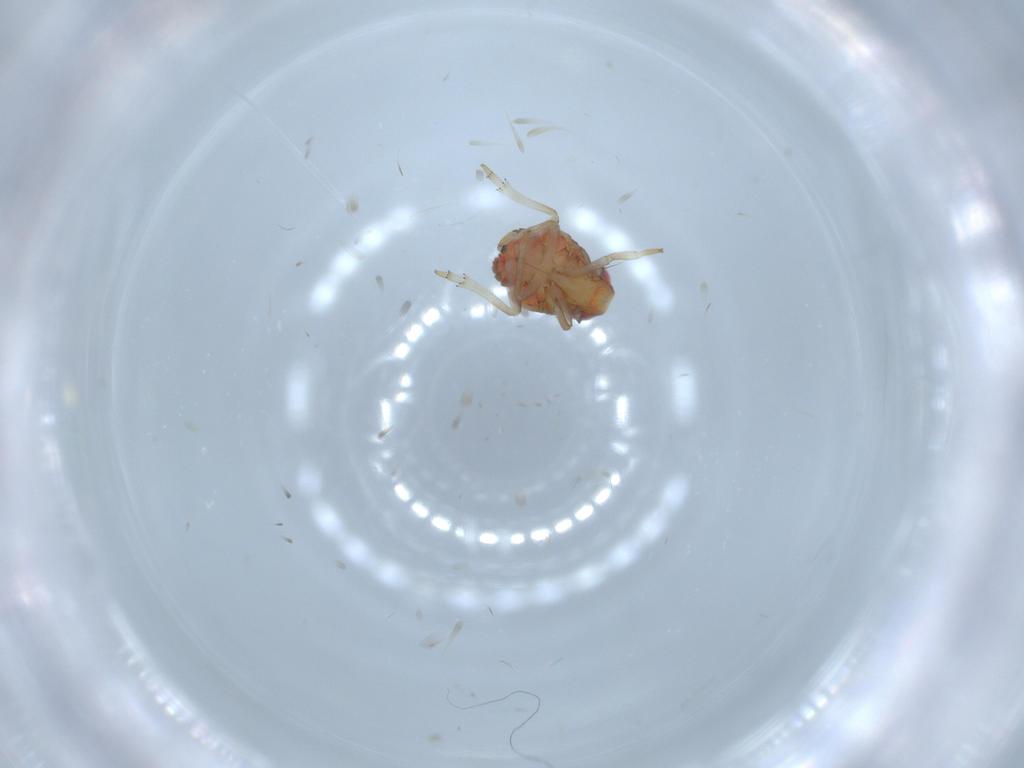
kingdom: Animalia
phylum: Arthropoda
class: Insecta
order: Hemiptera
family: Issidae
